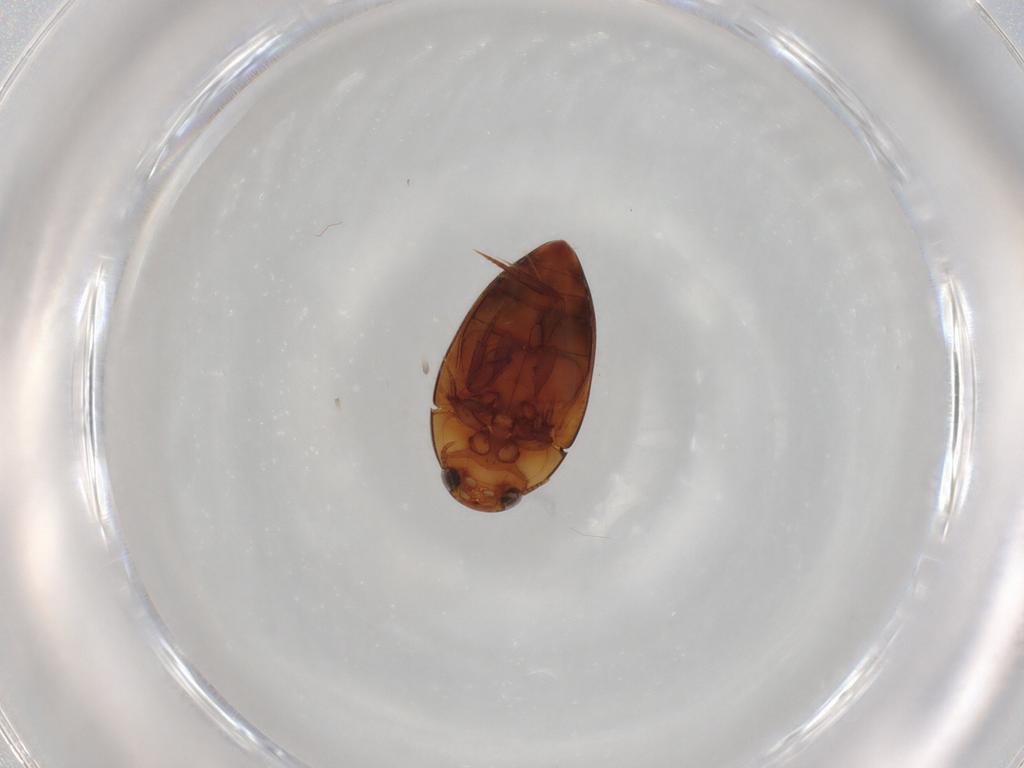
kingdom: Animalia
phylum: Arthropoda
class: Insecta
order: Coleoptera
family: Noteridae
